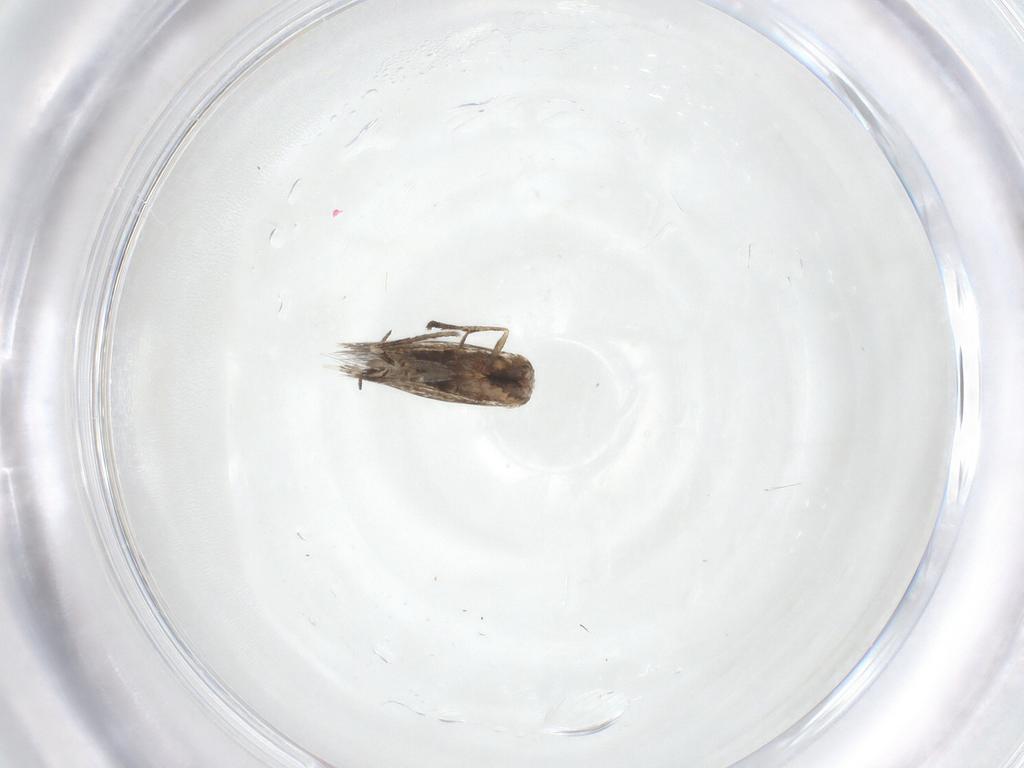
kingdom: Animalia
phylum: Arthropoda
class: Insecta
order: Lepidoptera
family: Gracillariidae
